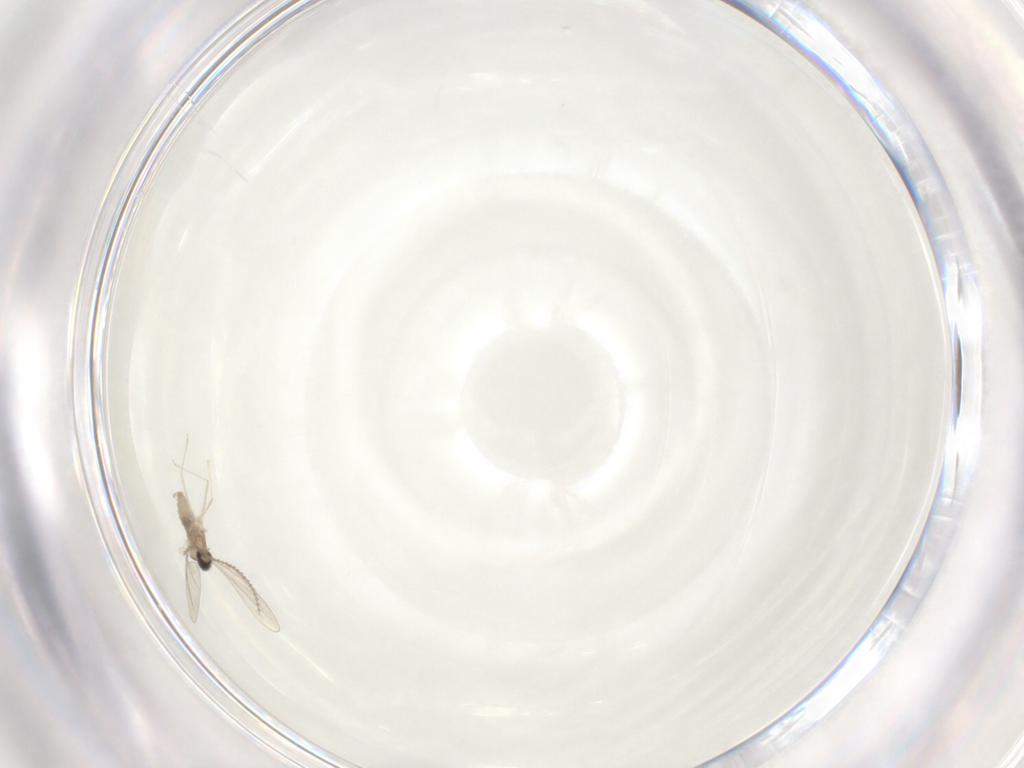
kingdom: Animalia
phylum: Arthropoda
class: Insecta
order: Diptera
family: Cecidomyiidae
